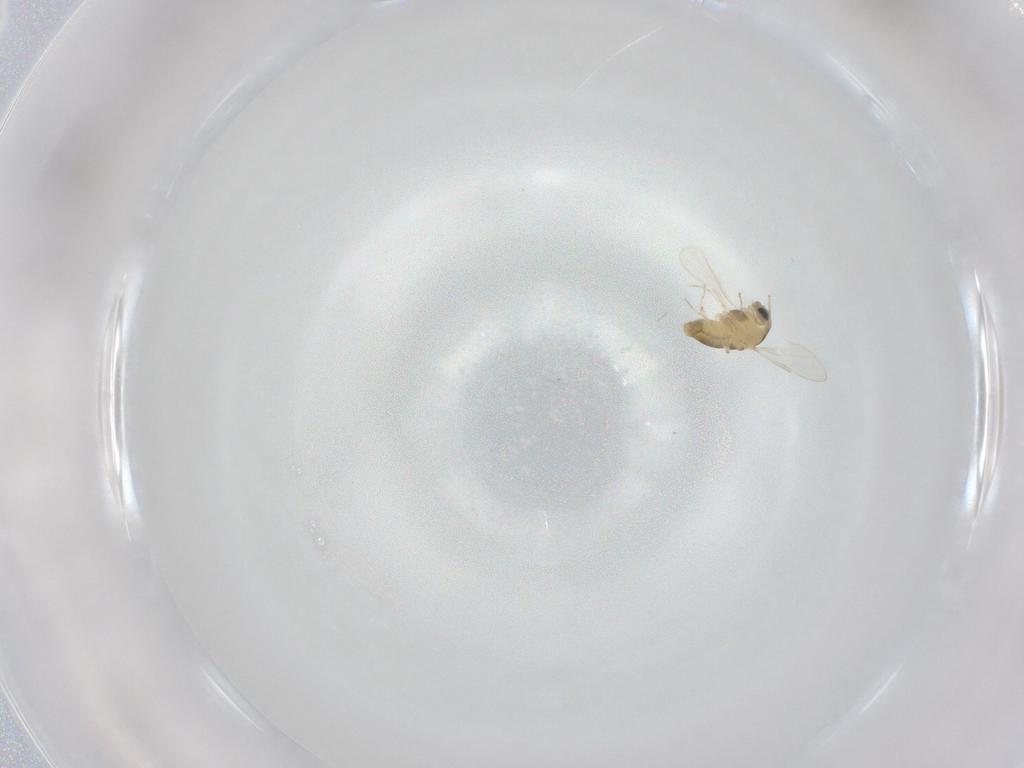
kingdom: Animalia
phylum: Arthropoda
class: Insecta
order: Diptera
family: Chironomidae
